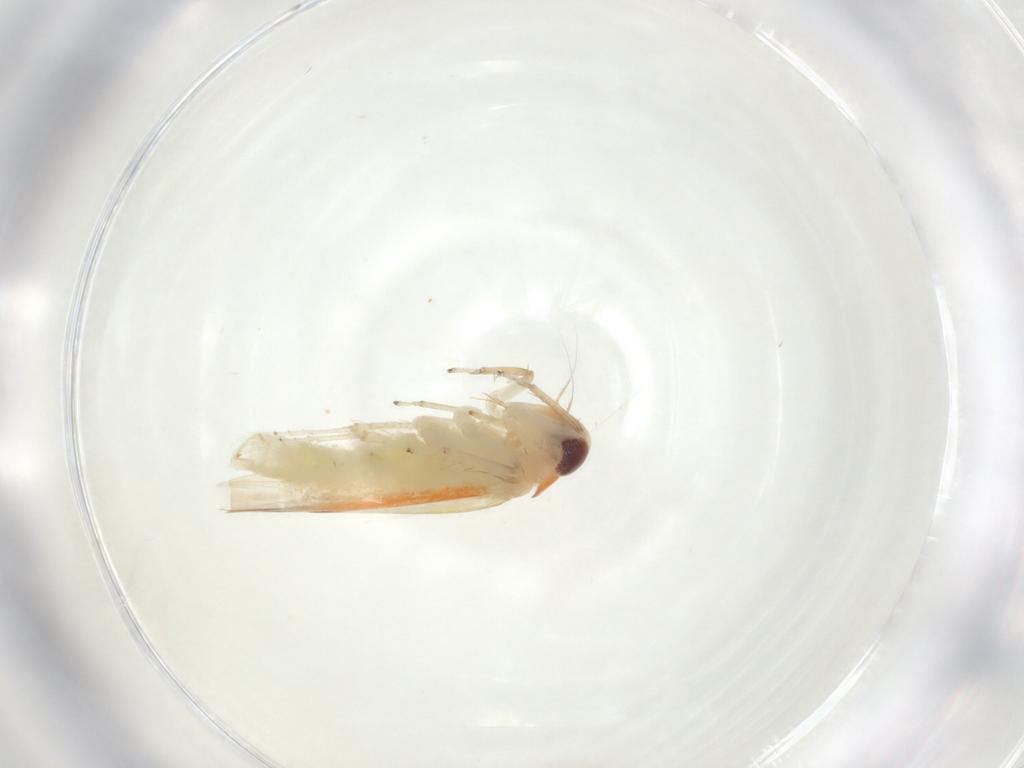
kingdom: Animalia
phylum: Arthropoda
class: Insecta
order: Hemiptera
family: Cicadellidae
